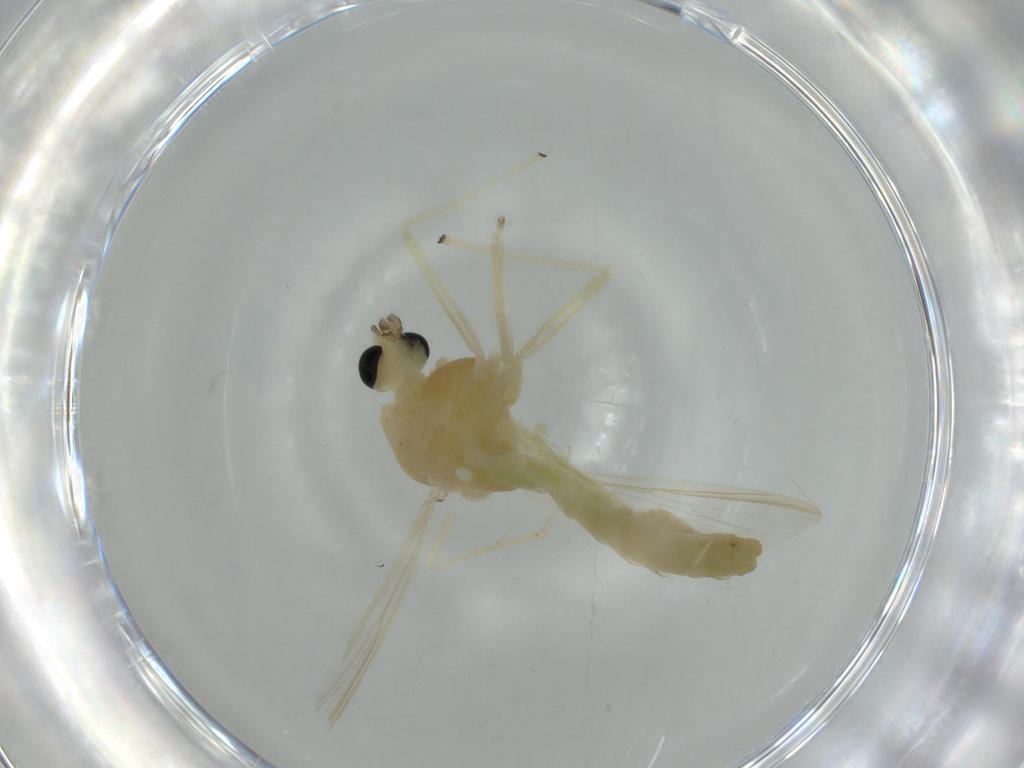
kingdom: Animalia
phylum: Arthropoda
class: Insecta
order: Diptera
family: Chironomidae
